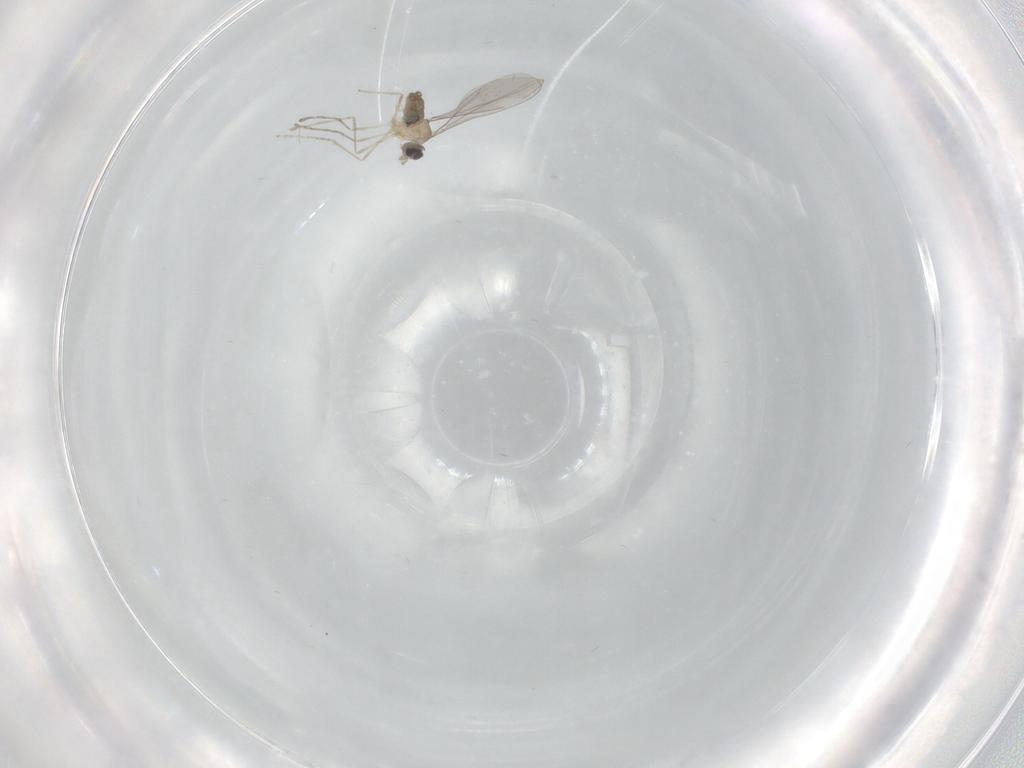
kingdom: Animalia
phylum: Arthropoda
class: Insecta
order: Diptera
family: Cecidomyiidae
